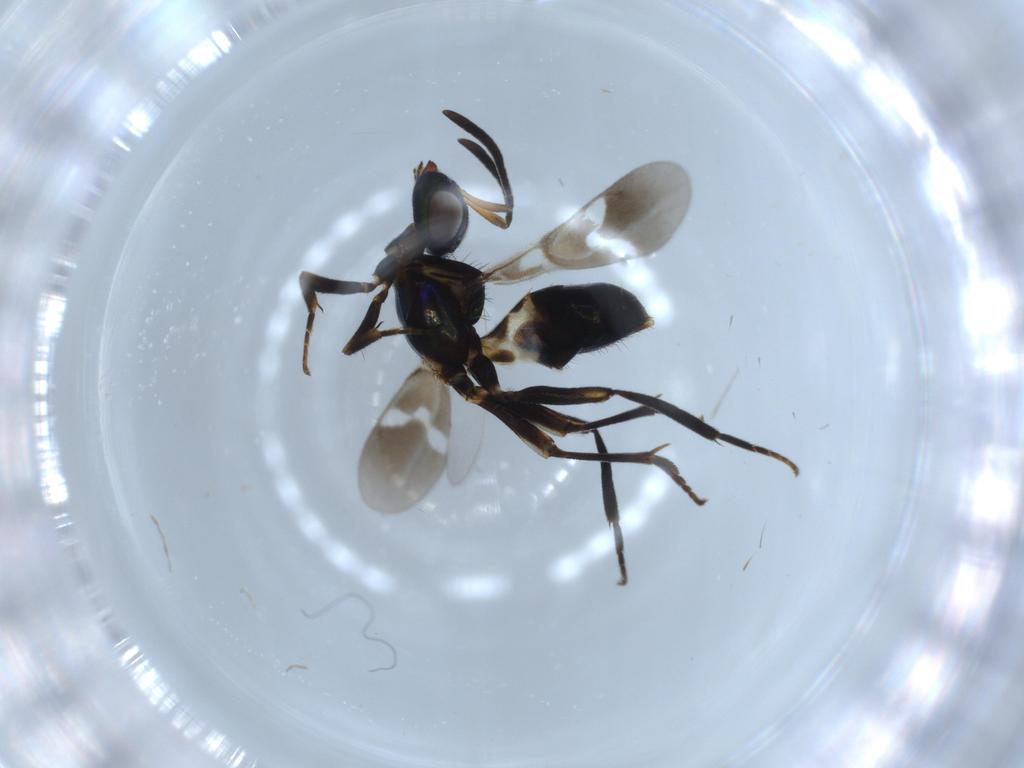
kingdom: Animalia
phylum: Arthropoda
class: Insecta
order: Hymenoptera
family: Eupelmidae
